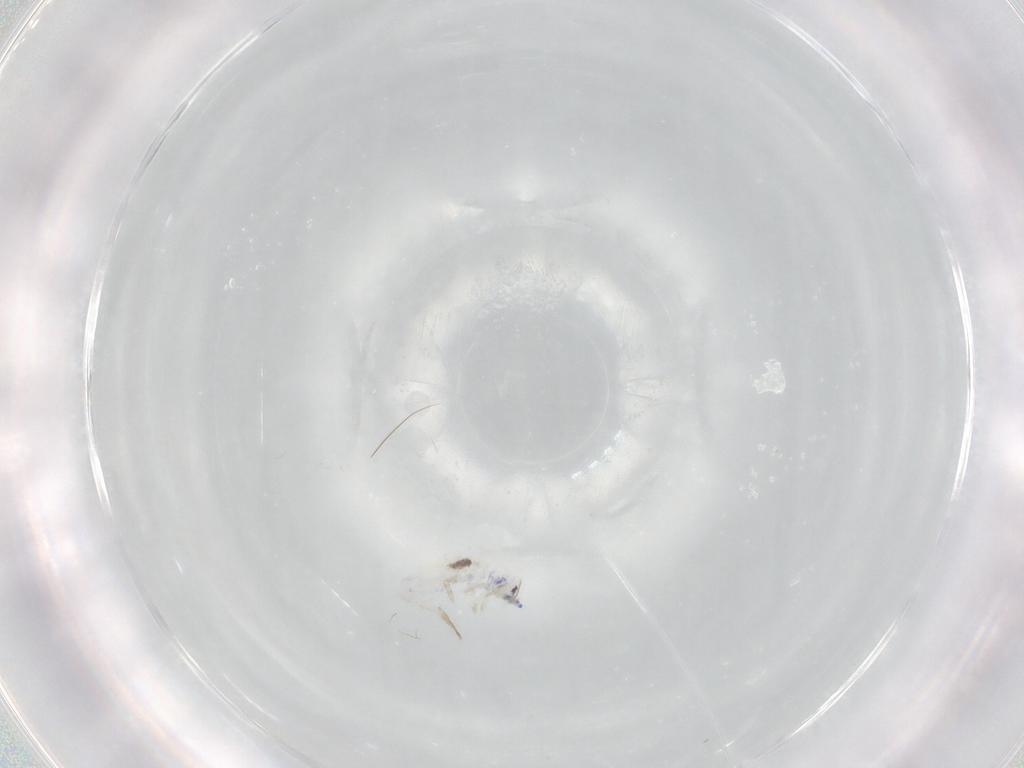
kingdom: Animalia
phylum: Arthropoda
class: Collembola
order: Entomobryomorpha
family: Entomobryidae
